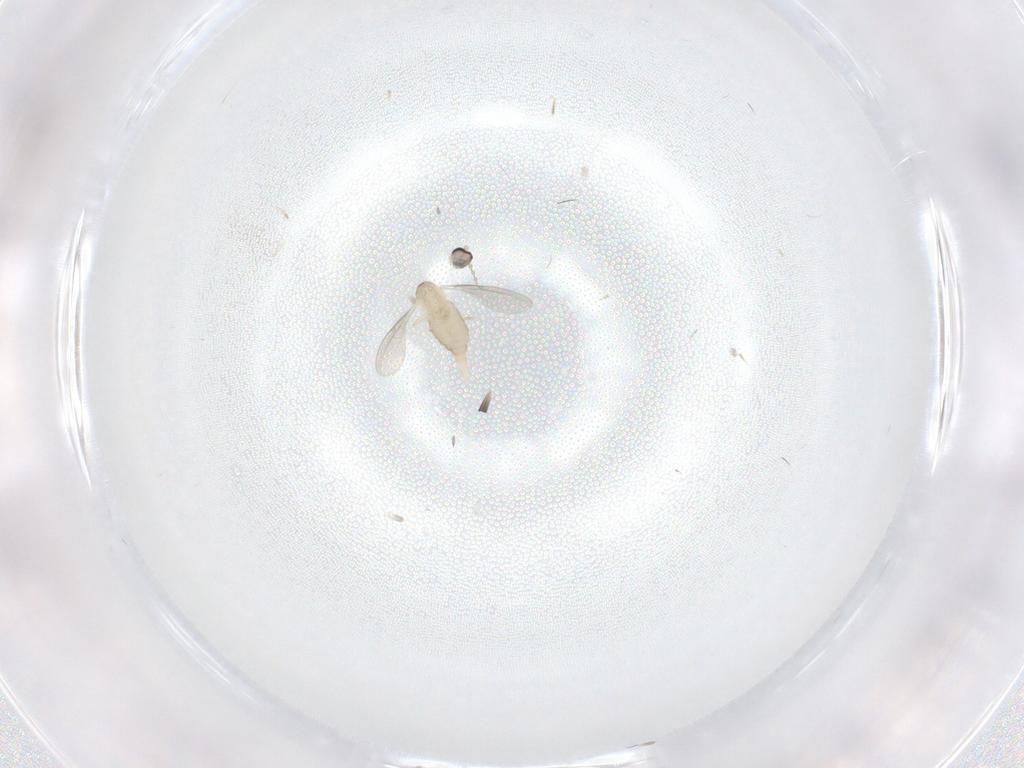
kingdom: Animalia
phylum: Arthropoda
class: Insecta
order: Diptera
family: Cecidomyiidae
